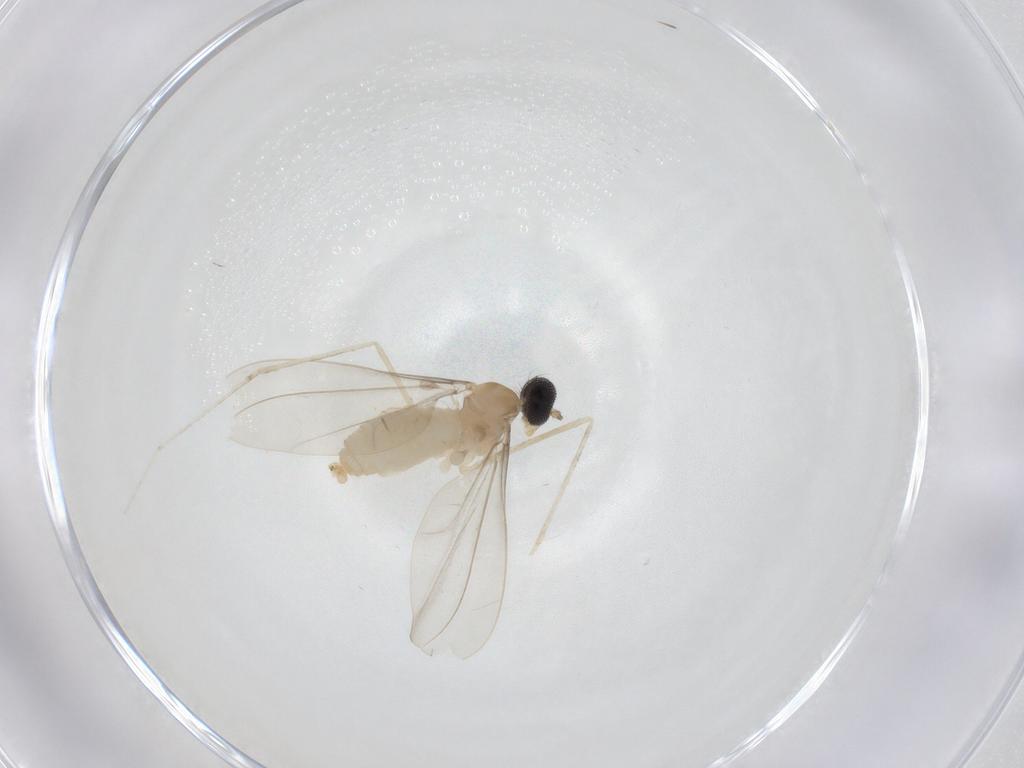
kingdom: Animalia
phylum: Arthropoda
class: Insecta
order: Diptera
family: Cecidomyiidae
